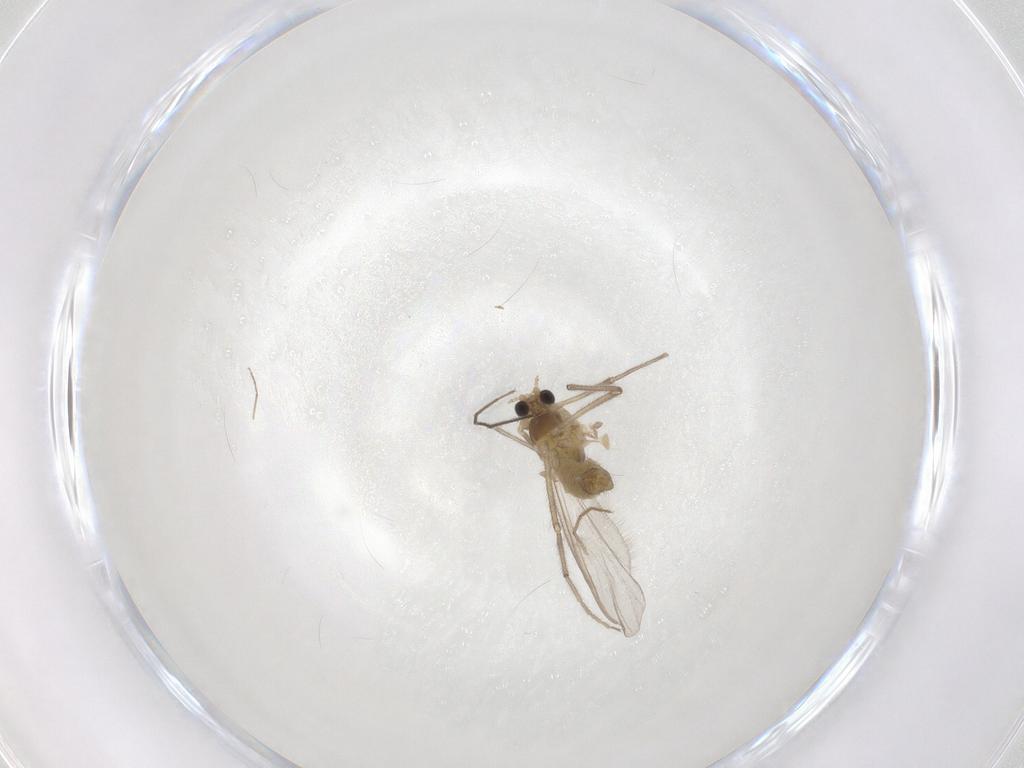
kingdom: Animalia
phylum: Arthropoda
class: Insecta
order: Diptera
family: Chironomidae
